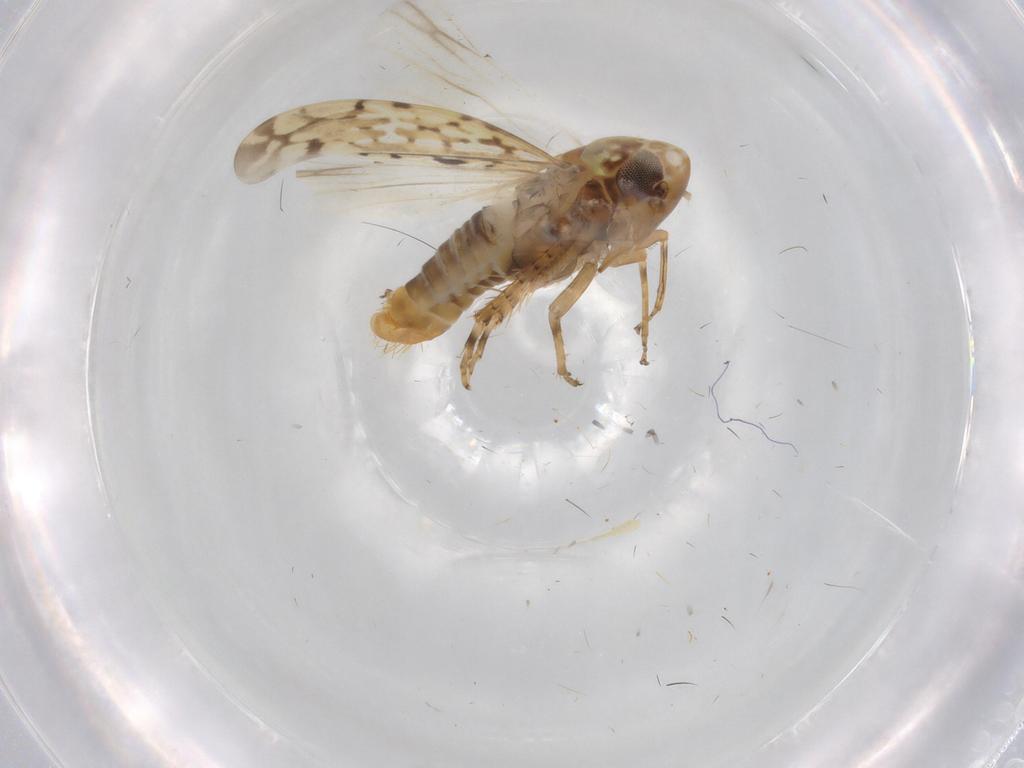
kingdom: Animalia
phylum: Arthropoda
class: Insecta
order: Hemiptera
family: Cicadellidae
